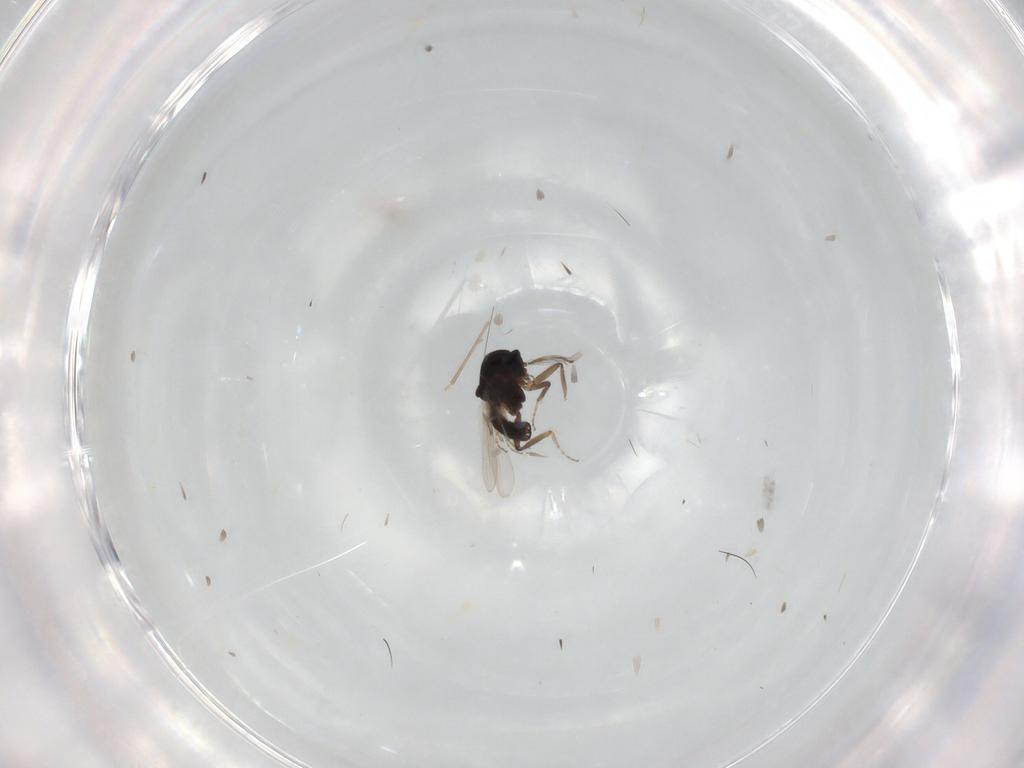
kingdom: Animalia
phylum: Arthropoda
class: Insecta
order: Diptera
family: Ceratopogonidae
